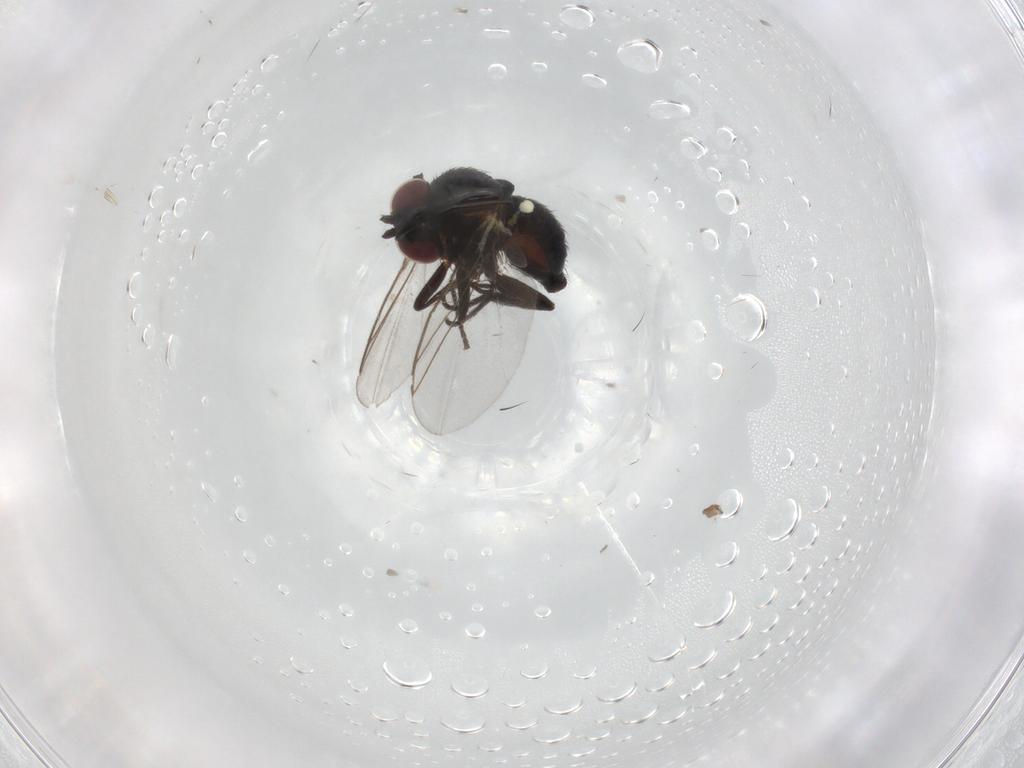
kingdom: Animalia
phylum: Arthropoda
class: Insecta
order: Diptera
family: Agromyzidae
